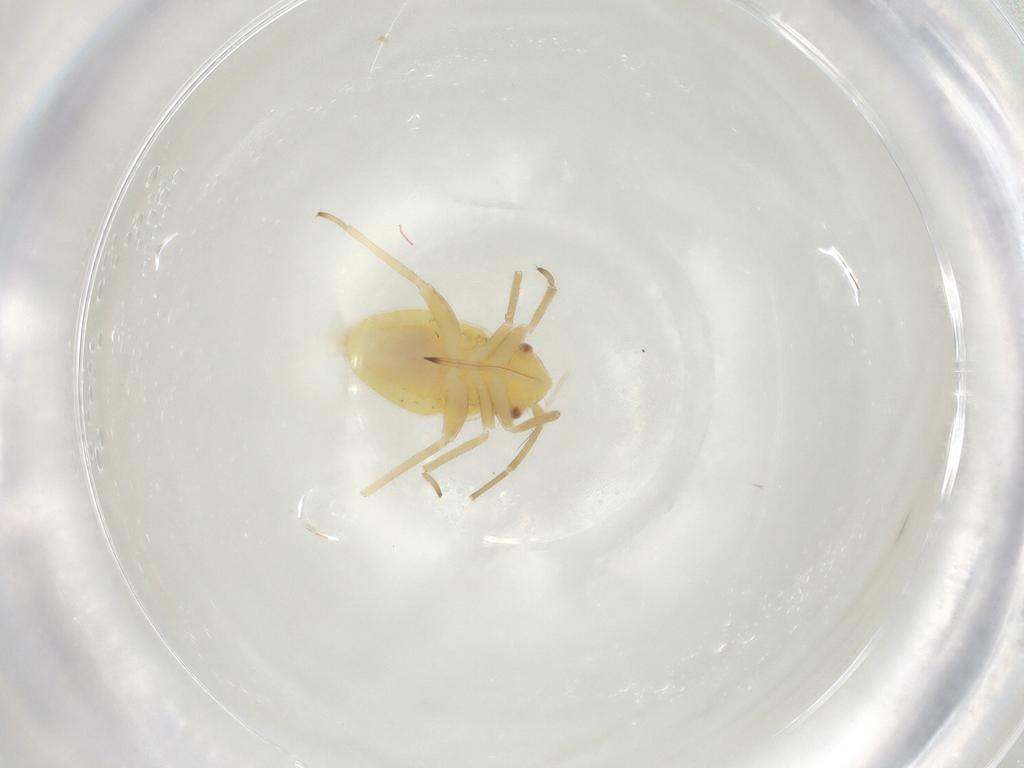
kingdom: Animalia
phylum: Arthropoda
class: Insecta
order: Hemiptera
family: Miridae
